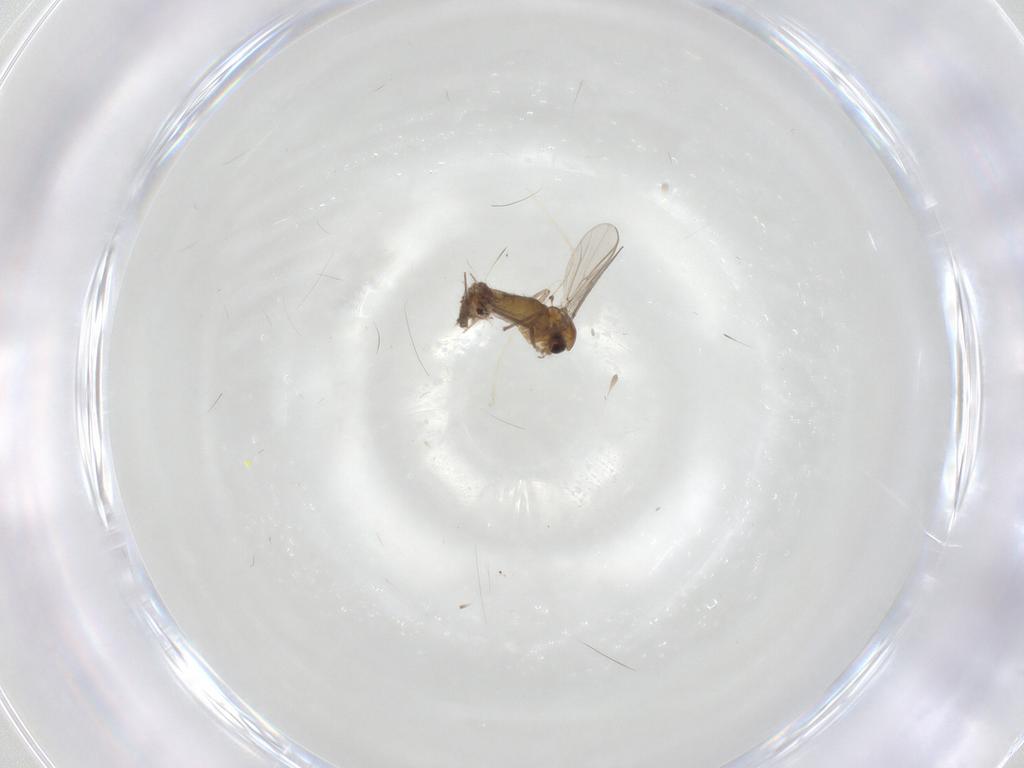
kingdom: Animalia
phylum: Arthropoda
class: Insecta
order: Diptera
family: Chironomidae
